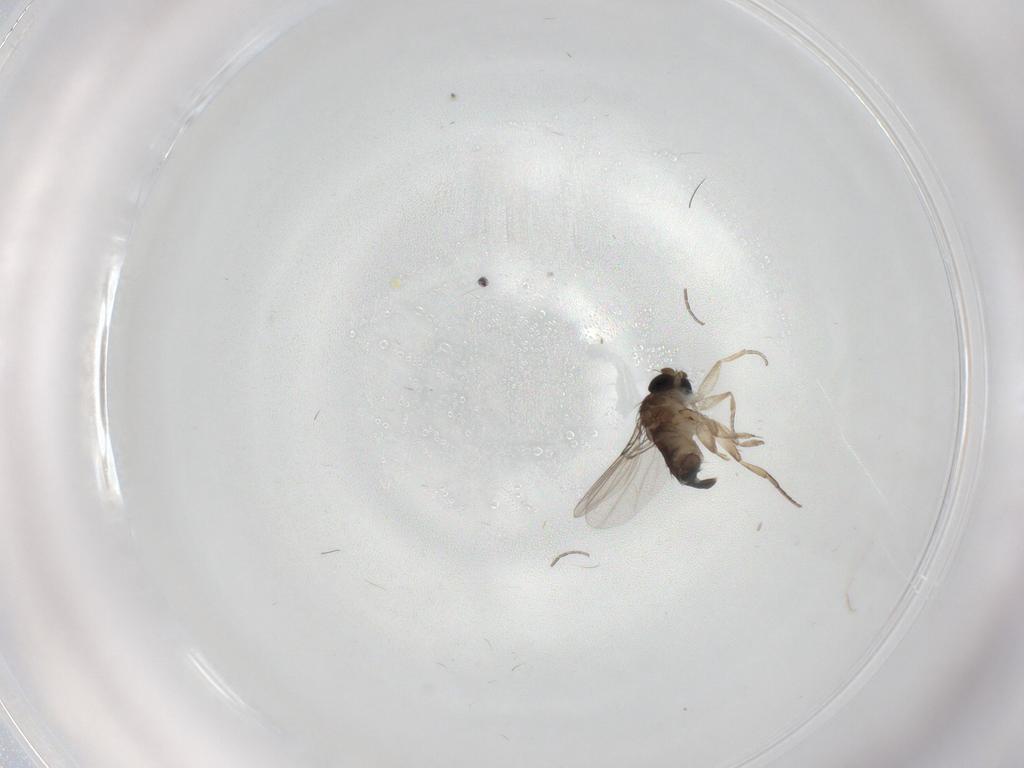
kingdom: Animalia
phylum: Arthropoda
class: Insecta
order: Diptera
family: Phoridae
